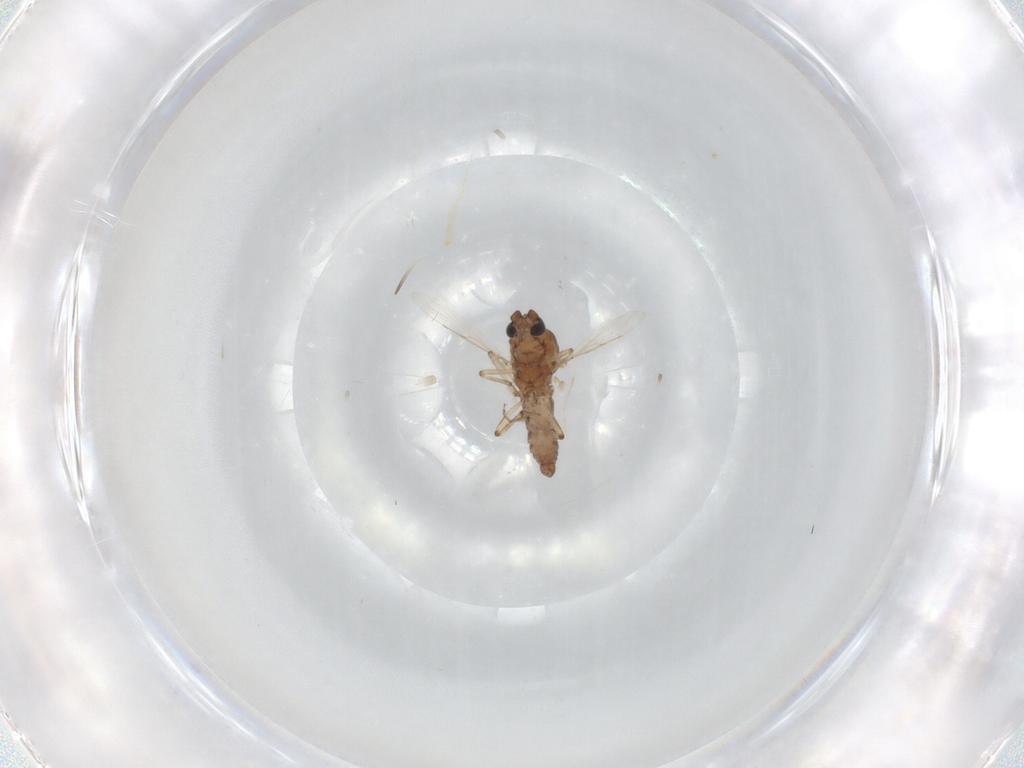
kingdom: Animalia
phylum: Arthropoda
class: Insecta
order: Diptera
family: Ceratopogonidae
